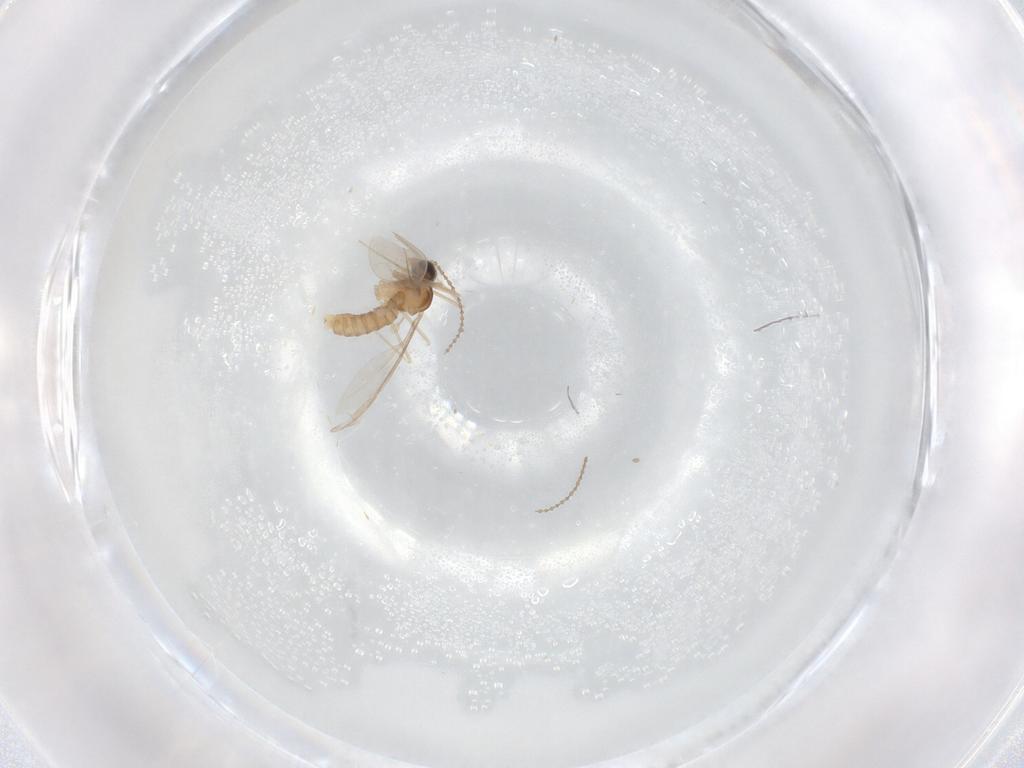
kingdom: Animalia
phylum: Arthropoda
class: Insecta
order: Diptera
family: Cecidomyiidae
